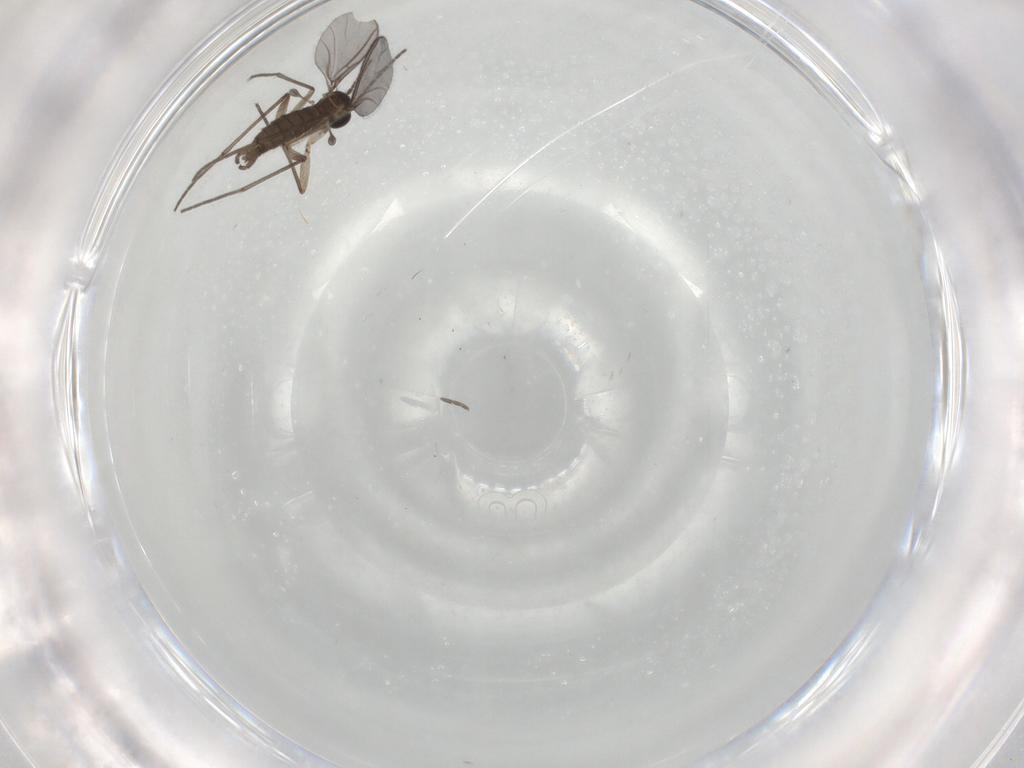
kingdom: Animalia
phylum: Arthropoda
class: Insecta
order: Diptera
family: Sciaridae
